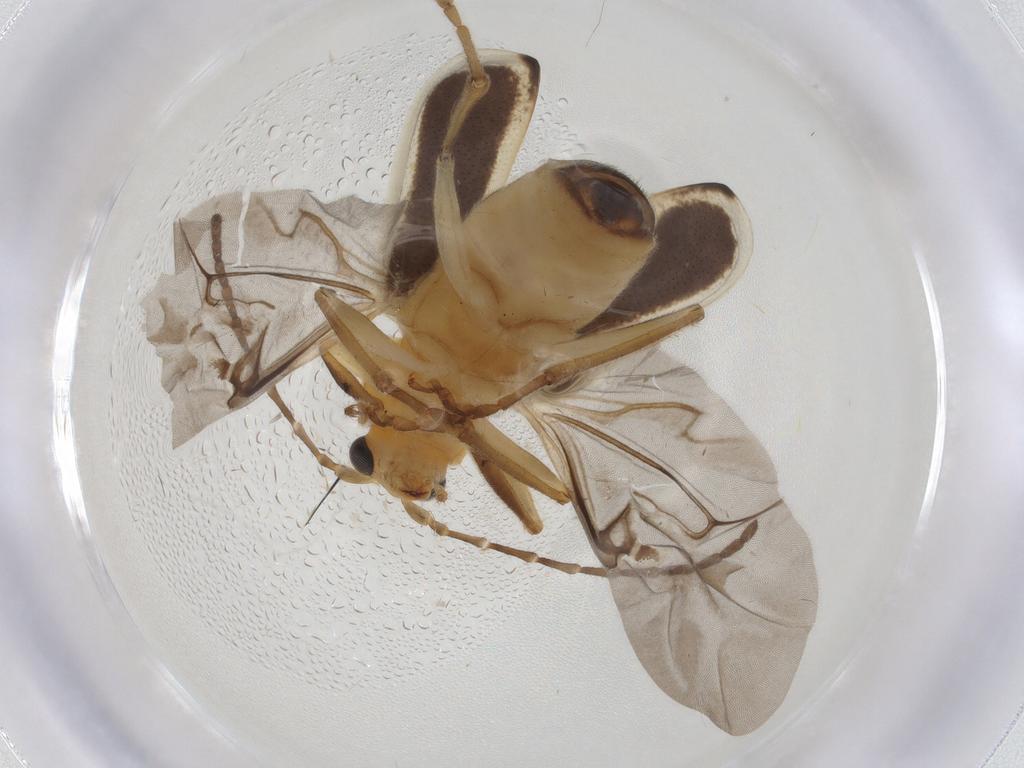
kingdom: Animalia
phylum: Arthropoda
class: Insecta
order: Coleoptera
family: Chrysomelidae
